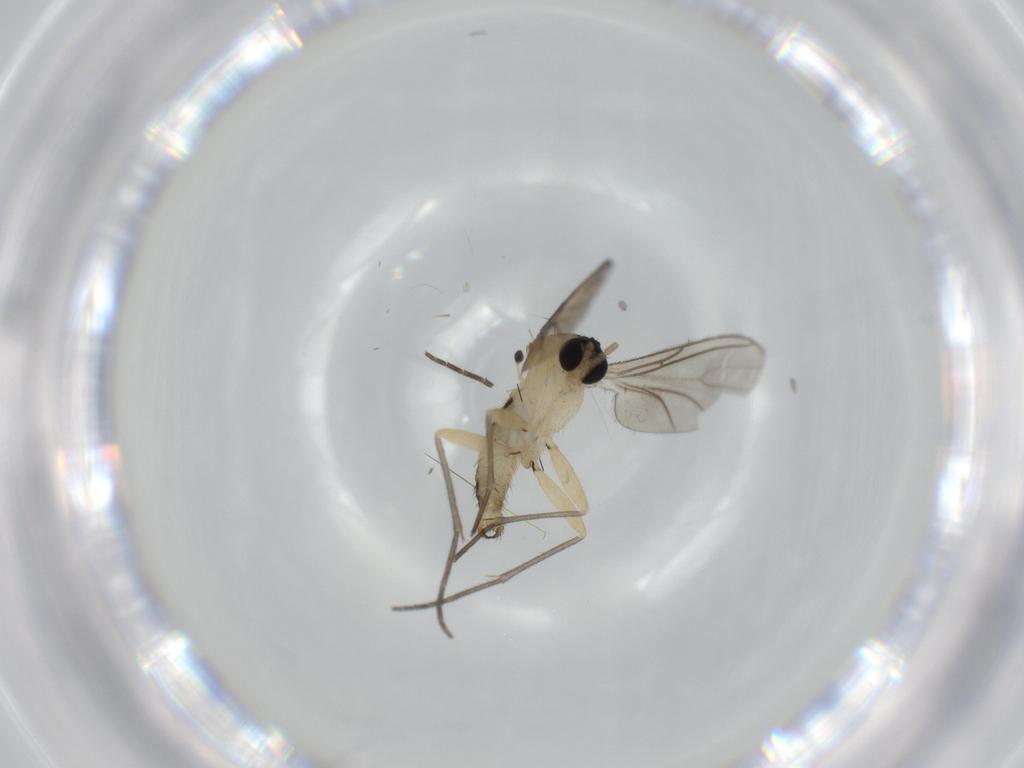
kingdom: Animalia
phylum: Arthropoda
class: Insecta
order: Diptera
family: Sciaridae
